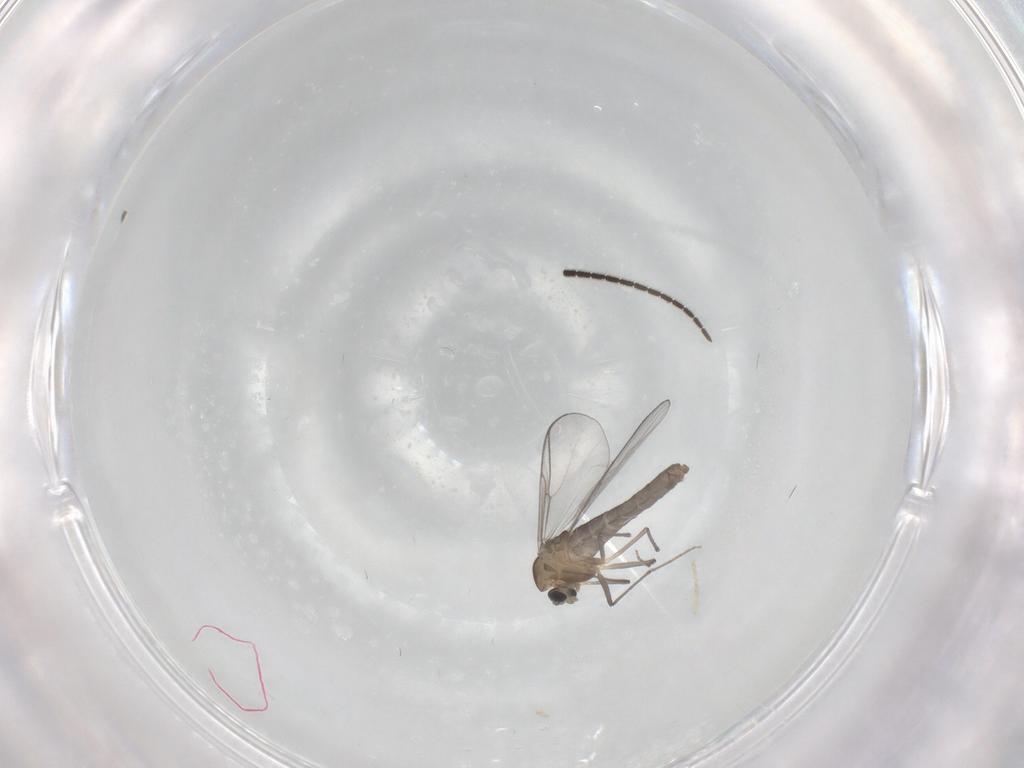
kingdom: Animalia
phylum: Arthropoda
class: Insecta
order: Diptera
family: Chironomidae
